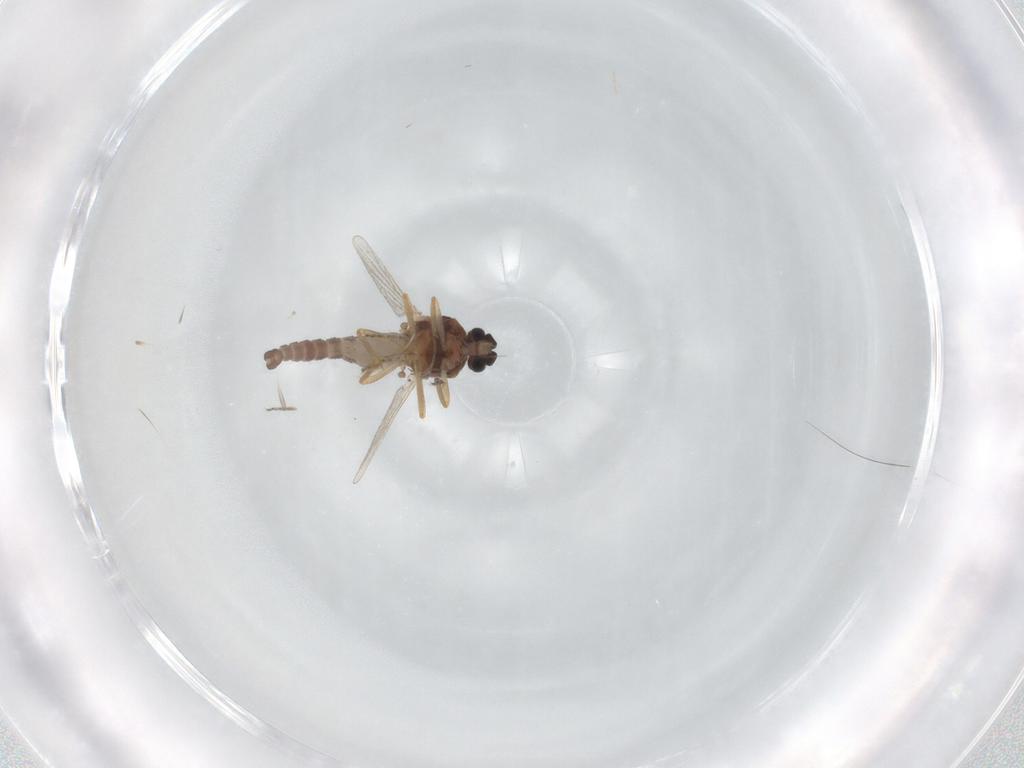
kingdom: Animalia
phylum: Arthropoda
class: Insecta
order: Diptera
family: Ceratopogonidae
